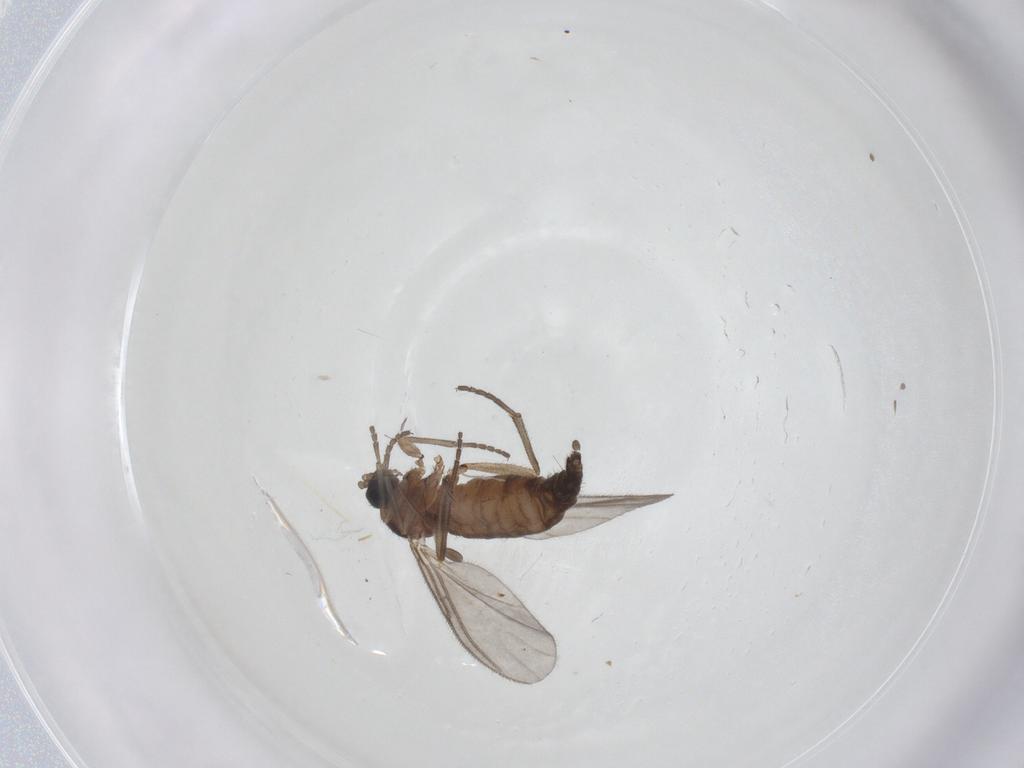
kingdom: Animalia
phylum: Arthropoda
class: Insecta
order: Diptera
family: Sciaridae
